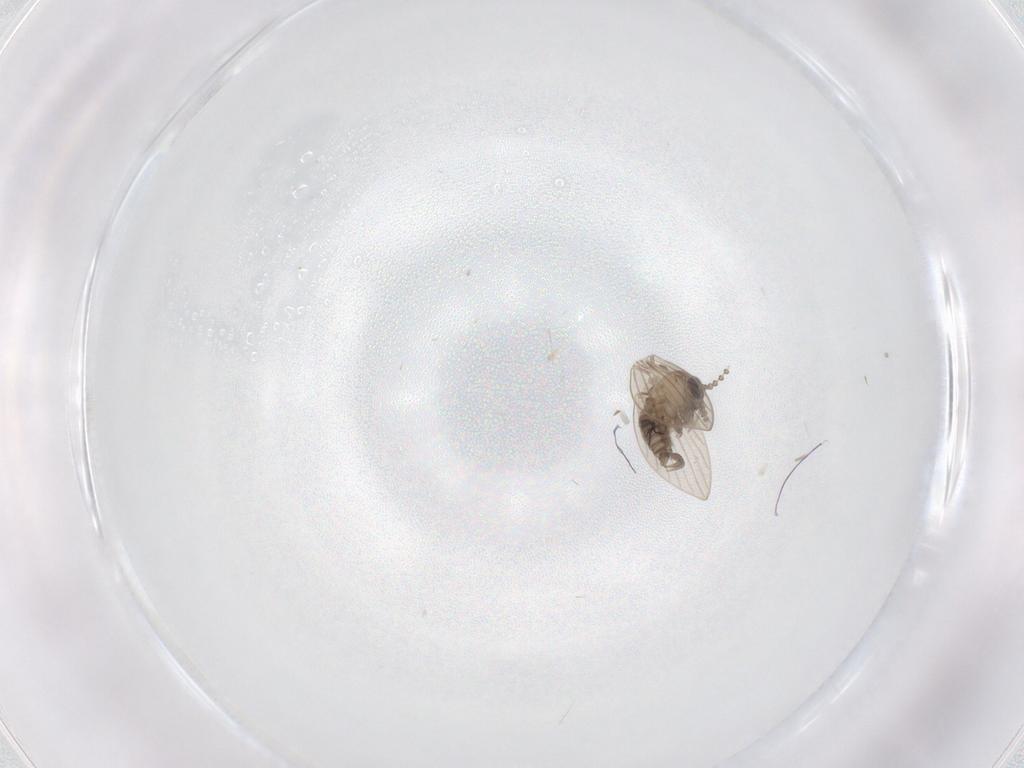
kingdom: Animalia
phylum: Arthropoda
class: Insecta
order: Diptera
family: Psychodidae
